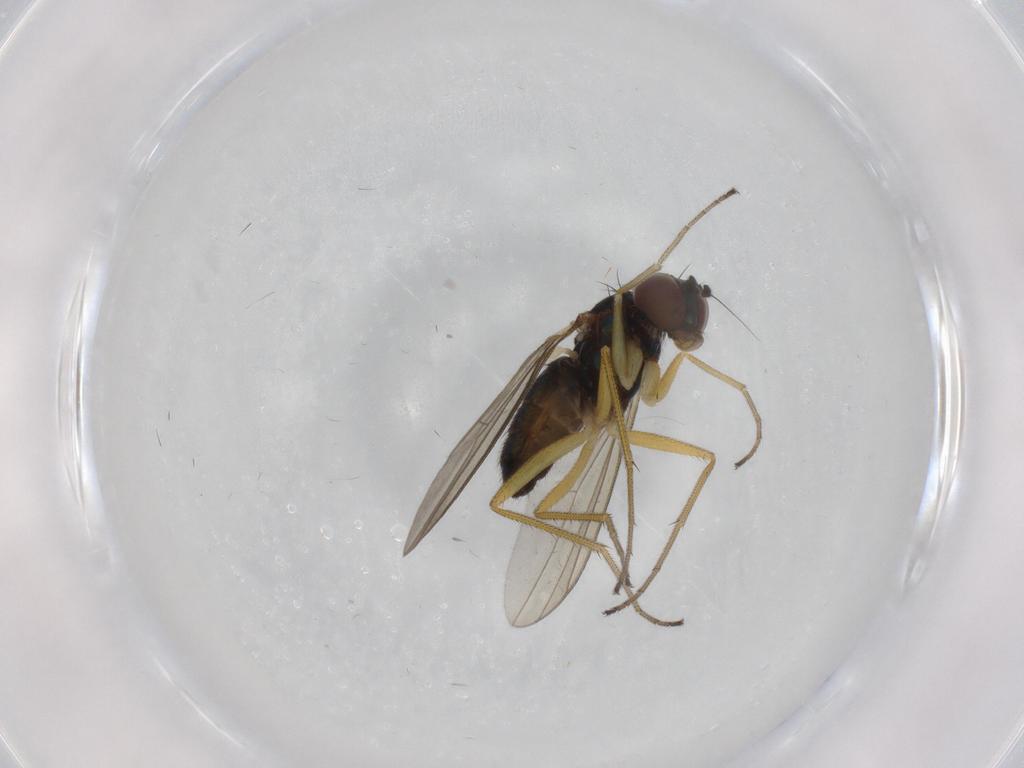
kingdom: Animalia
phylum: Arthropoda
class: Insecta
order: Diptera
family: Dolichopodidae
